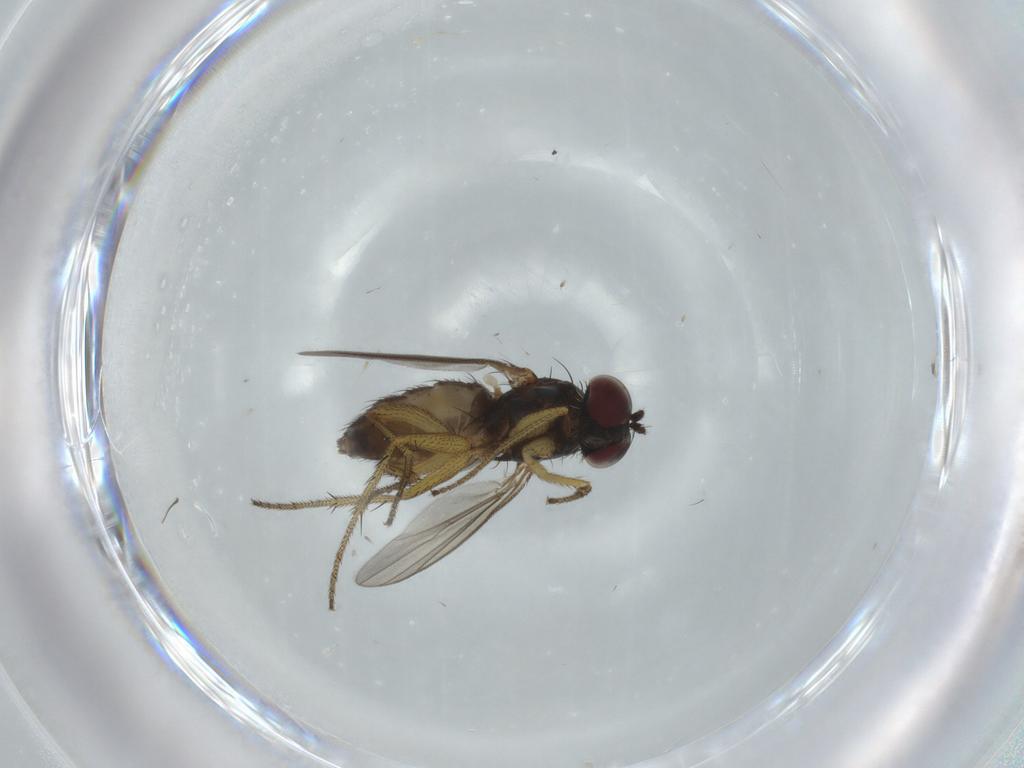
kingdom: Animalia
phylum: Arthropoda
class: Insecta
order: Diptera
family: Dolichopodidae
